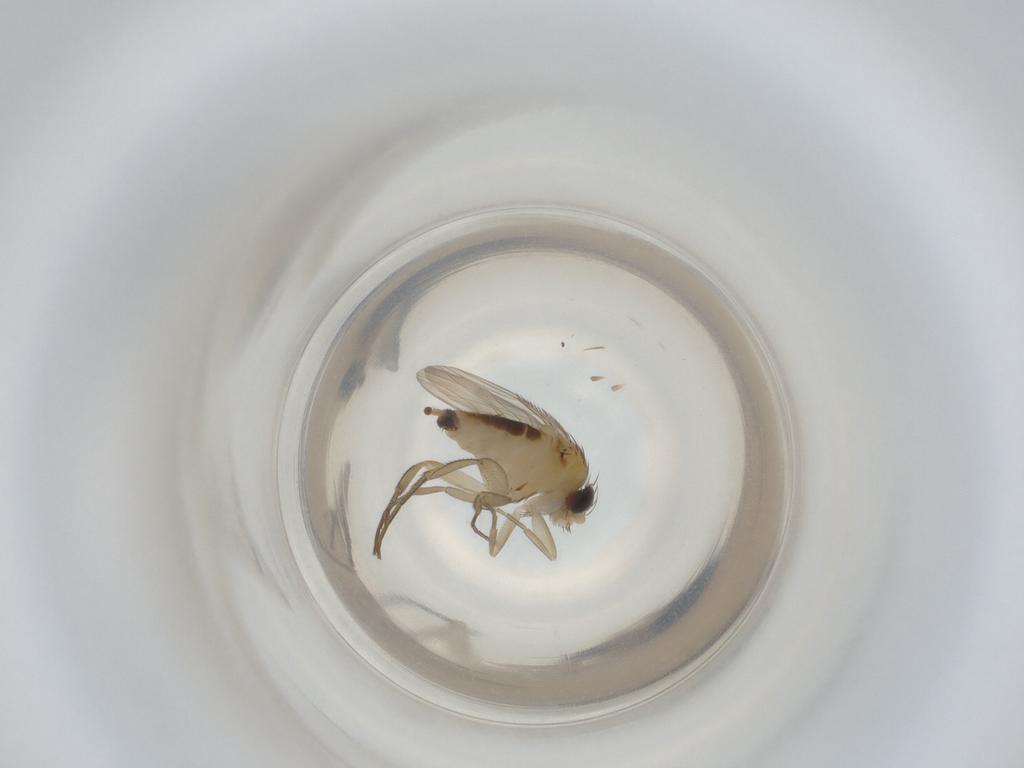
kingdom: Animalia
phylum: Arthropoda
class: Insecta
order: Diptera
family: Phoridae
